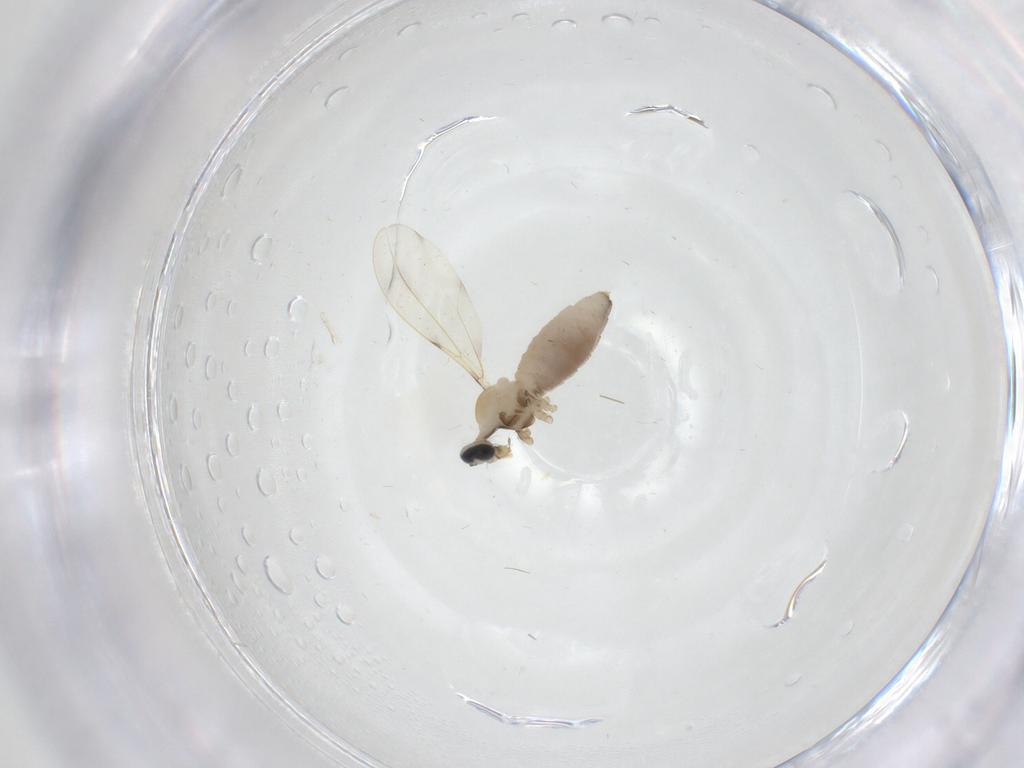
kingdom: Animalia
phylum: Arthropoda
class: Insecta
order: Diptera
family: Cecidomyiidae
